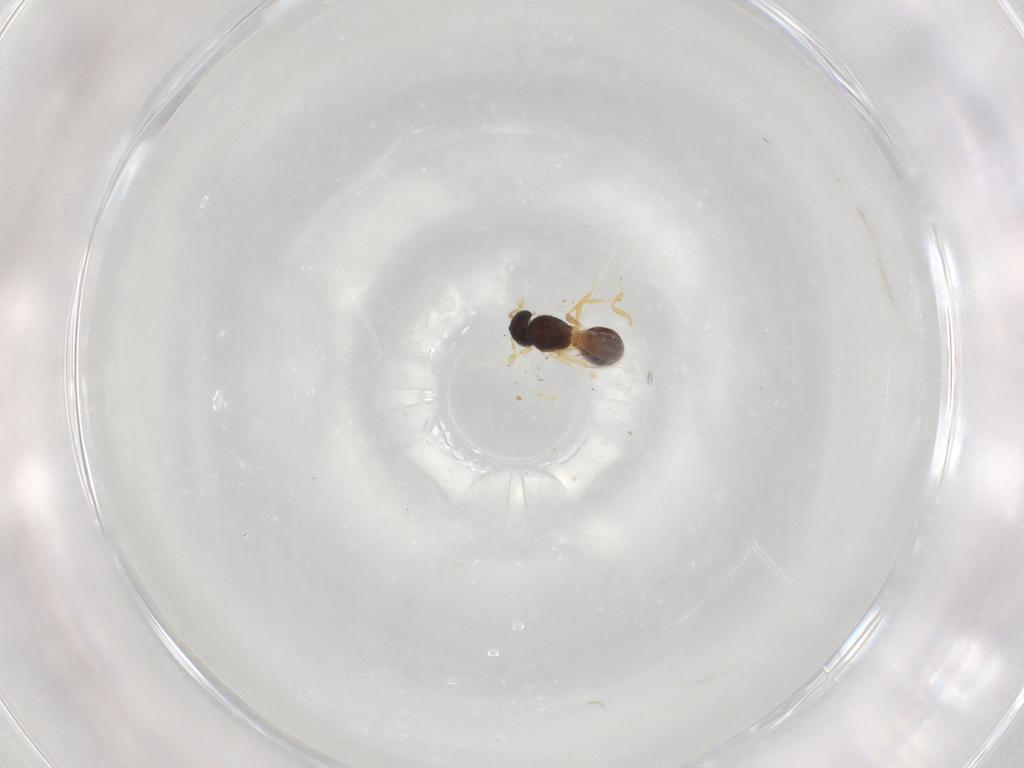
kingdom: Animalia
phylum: Arthropoda
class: Insecta
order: Hymenoptera
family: Scelionidae
